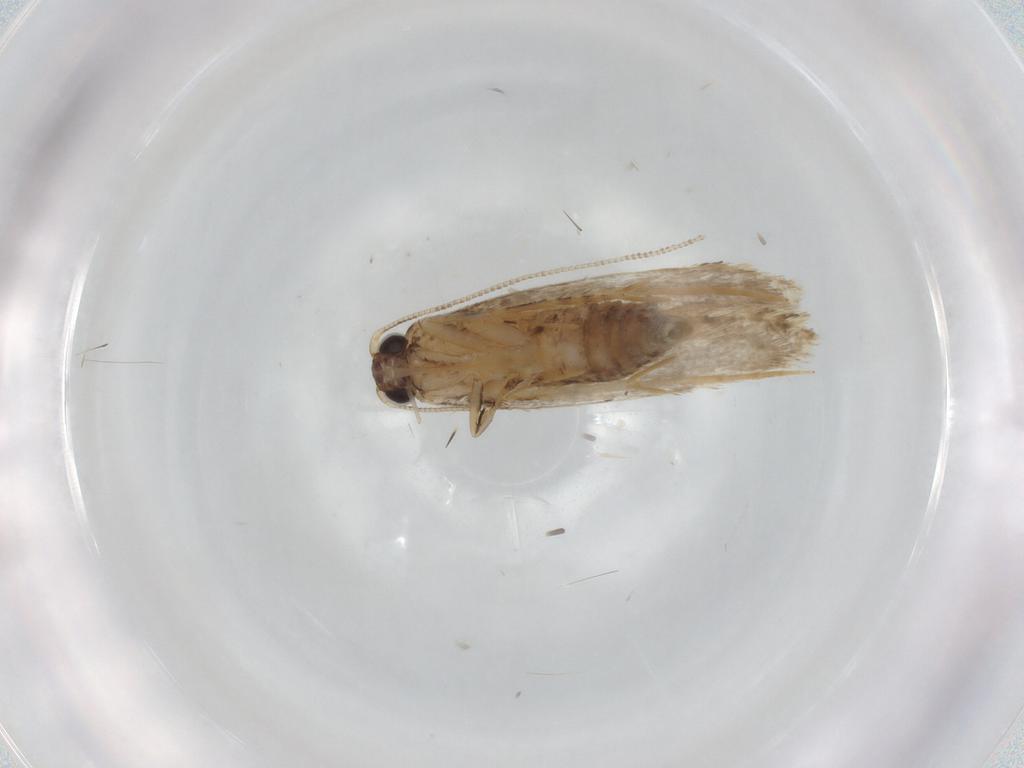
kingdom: Animalia
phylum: Arthropoda
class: Insecta
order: Lepidoptera
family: Tineidae
